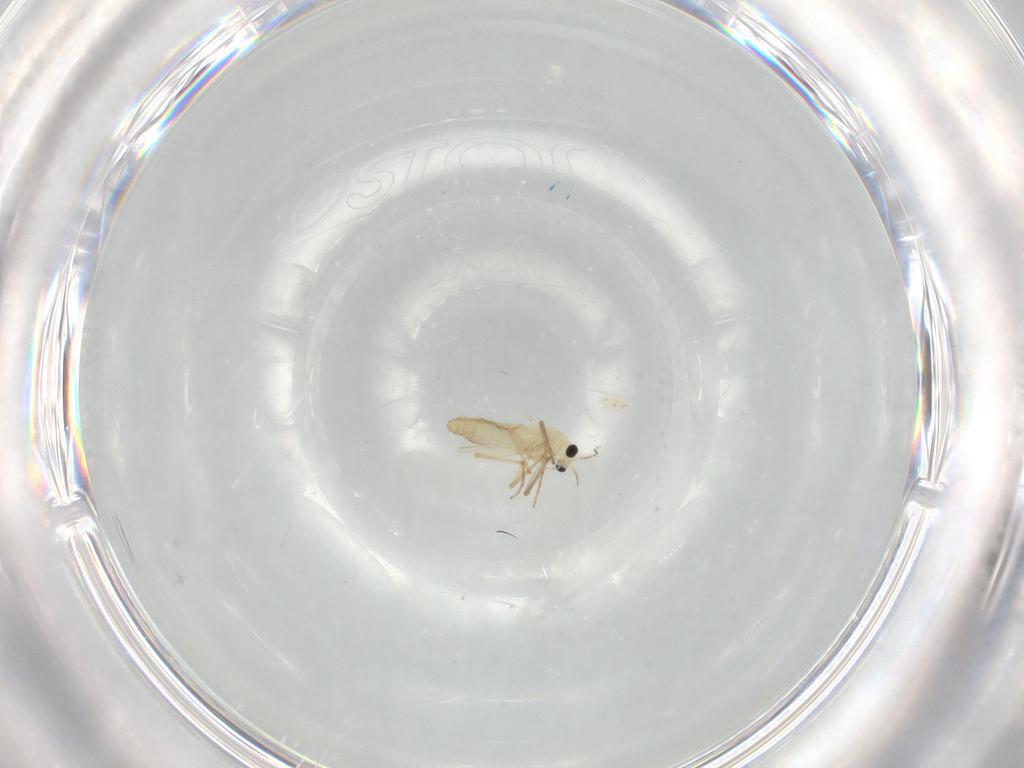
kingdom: Animalia
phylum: Arthropoda
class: Insecta
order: Diptera
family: Chironomidae
